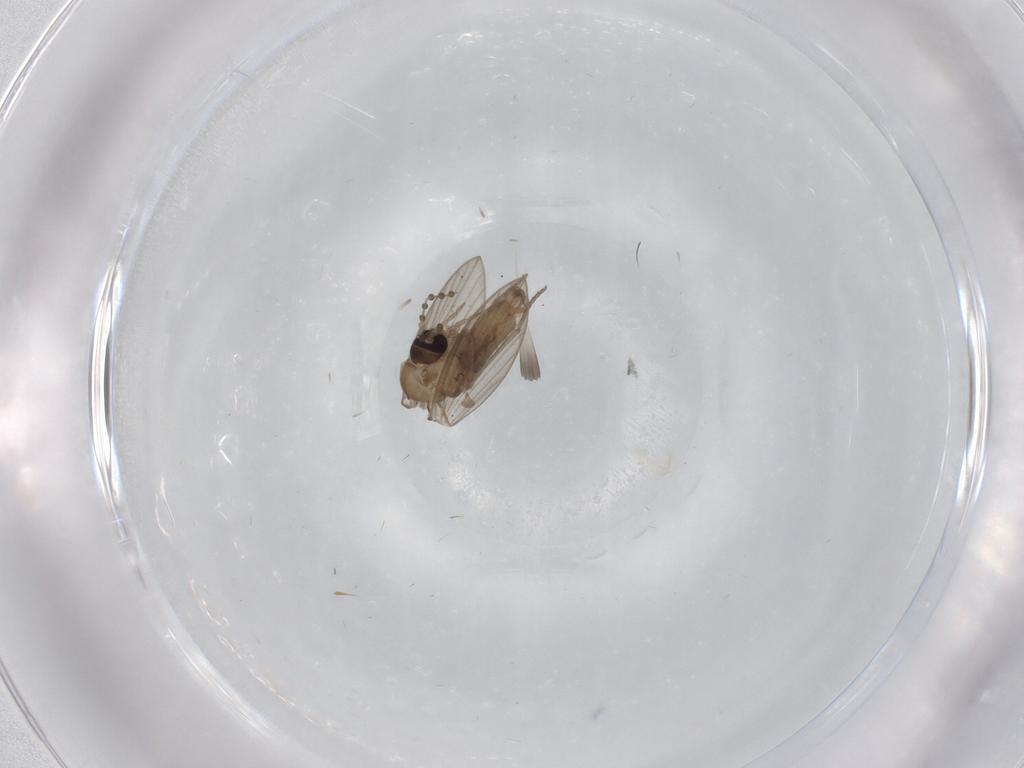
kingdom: Animalia
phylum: Arthropoda
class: Insecta
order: Diptera
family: Psychodidae
